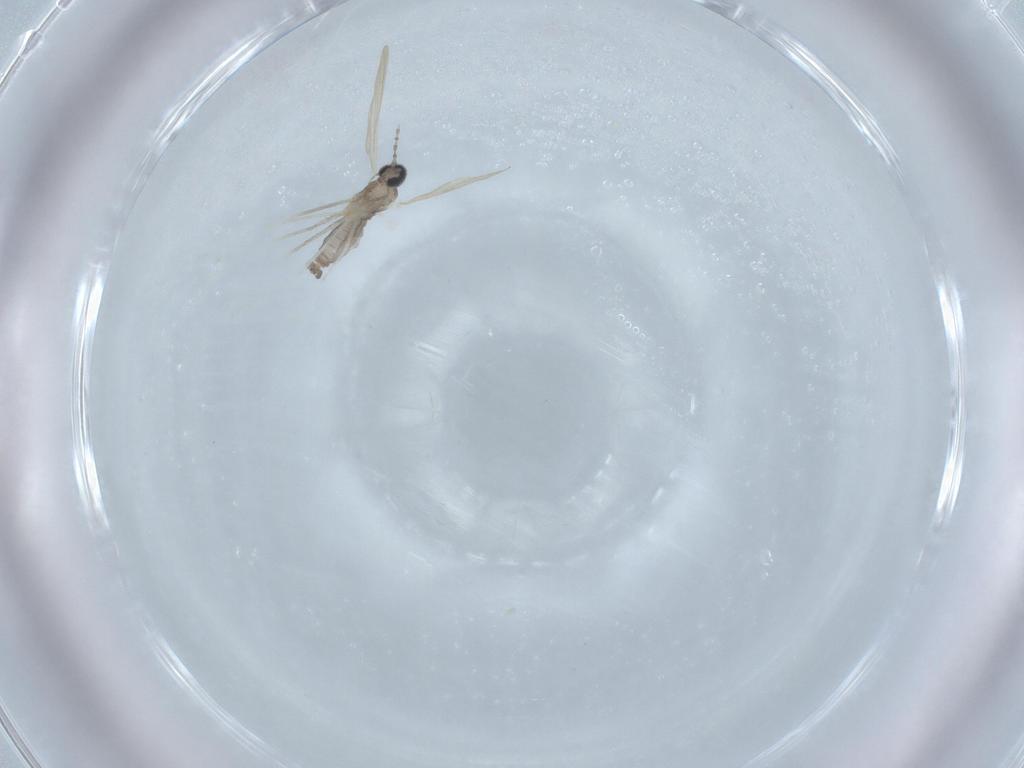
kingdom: Animalia
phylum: Arthropoda
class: Insecta
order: Diptera
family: Cecidomyiidae
